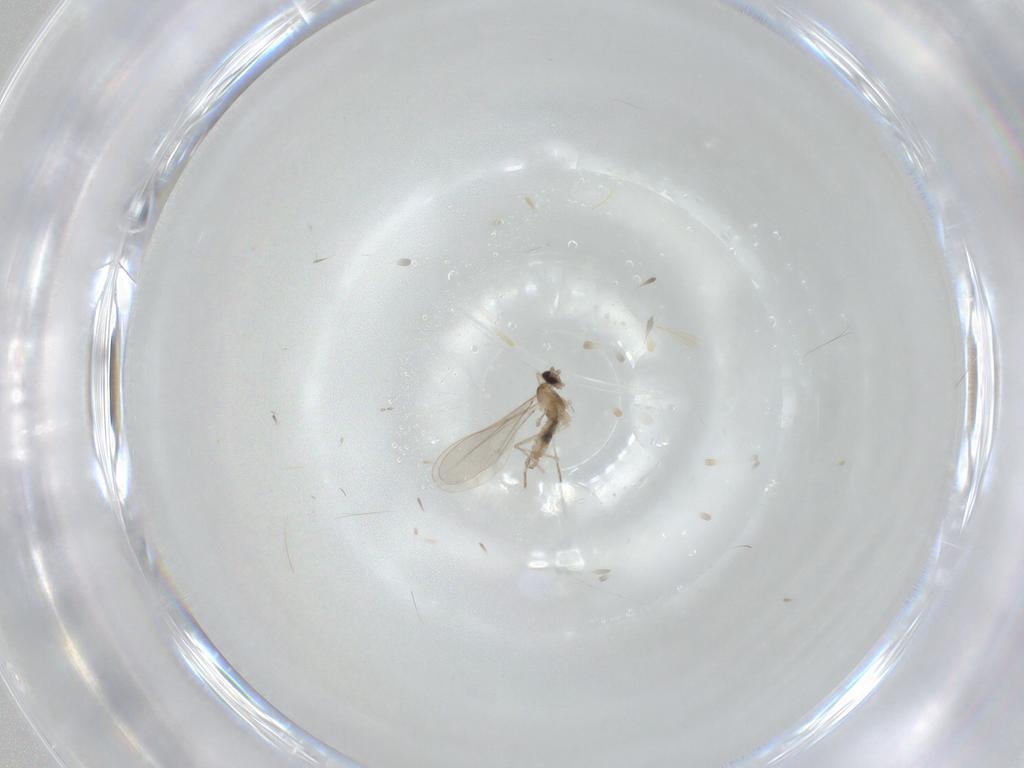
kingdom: Animalia
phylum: Arthropoda
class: Insecta
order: Diptera
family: Cecidomyiidae
